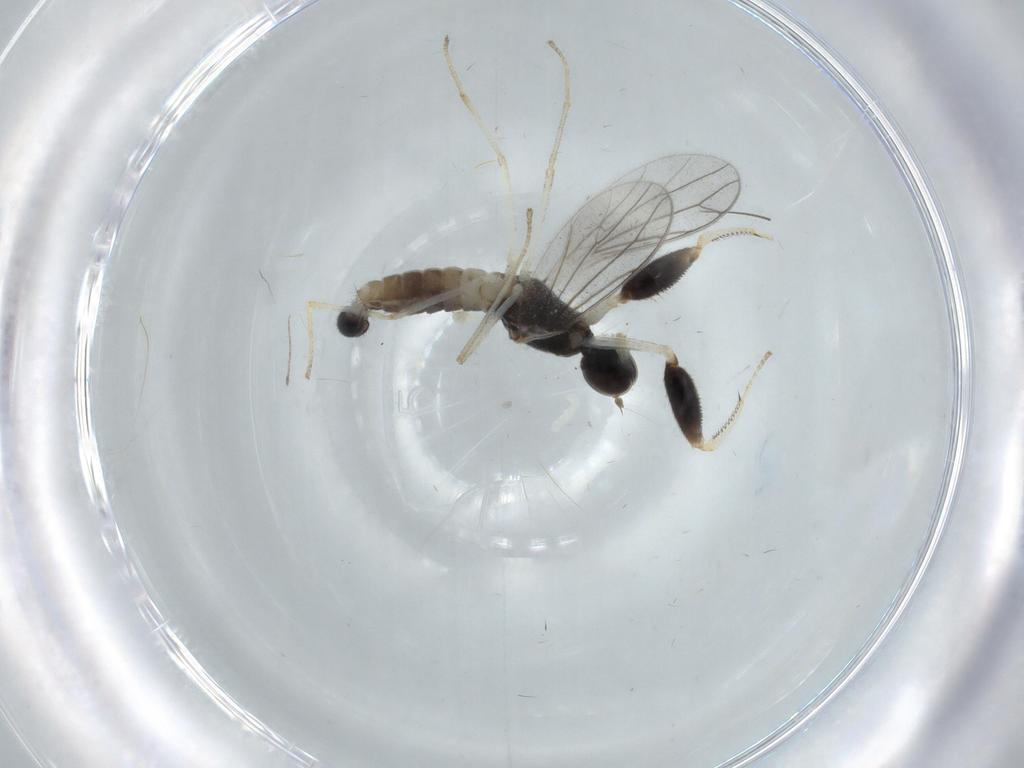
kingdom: Animalia
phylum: Arthropoda
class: Insecta
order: Diptera
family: Empididae
